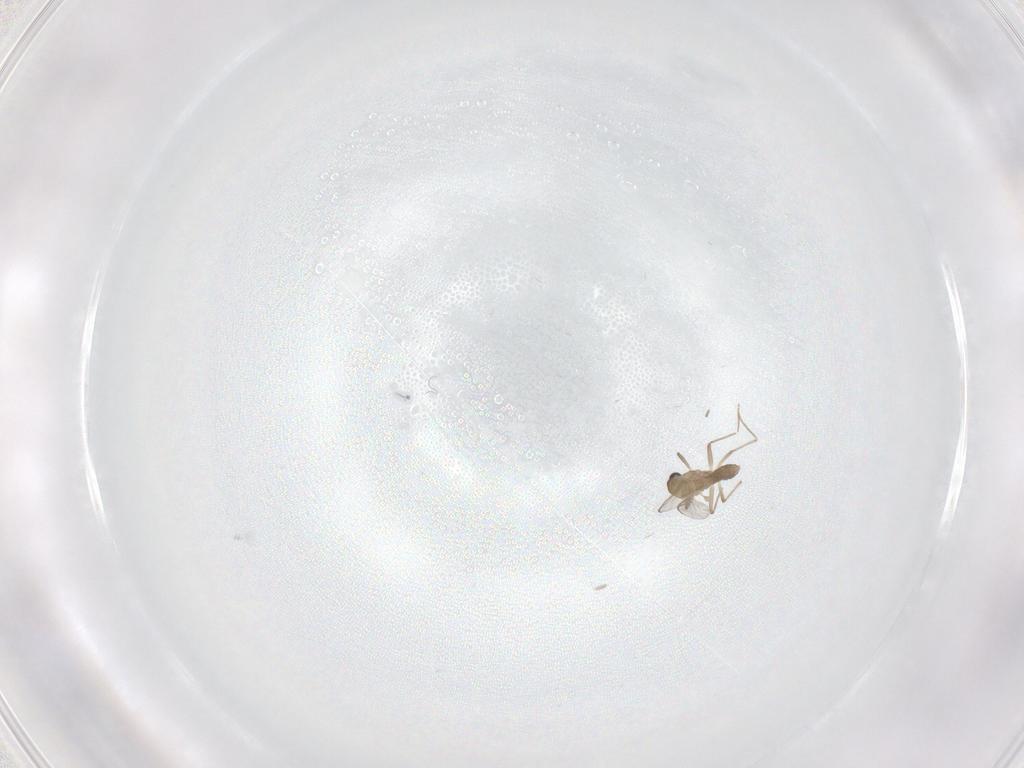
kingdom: Animalia
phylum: Arthropoda
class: Insecta
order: Diptera
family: Chironomidae
